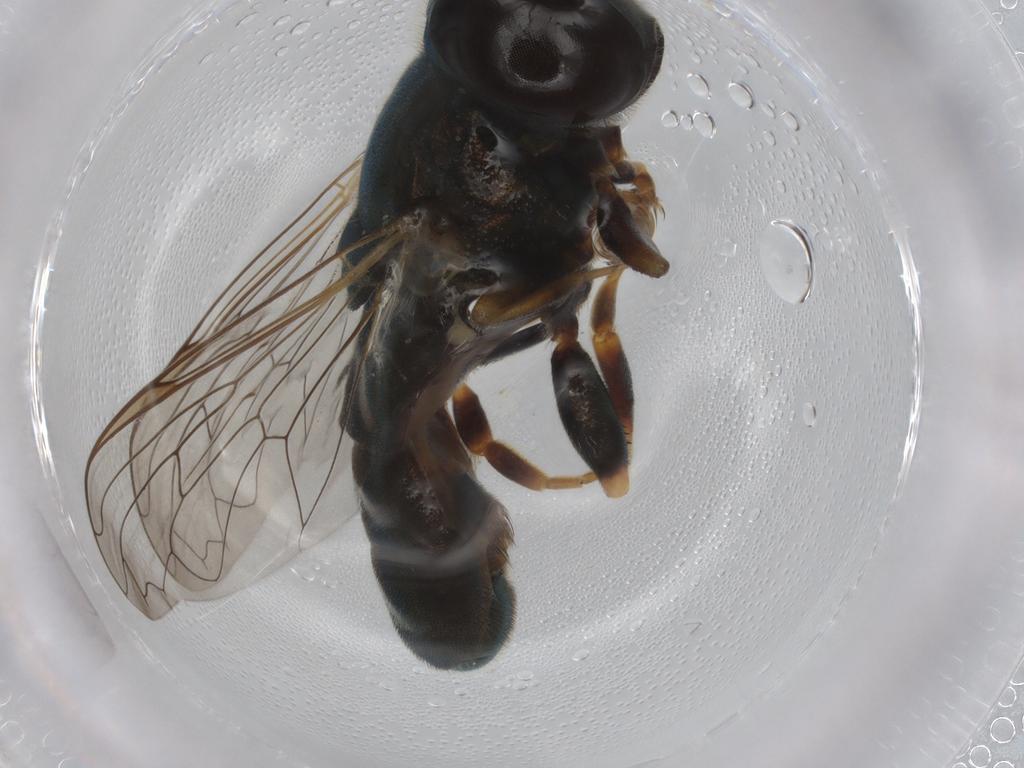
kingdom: Animalia
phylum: Arthropoda
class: Insecta
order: Diptera
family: Syrphidae
